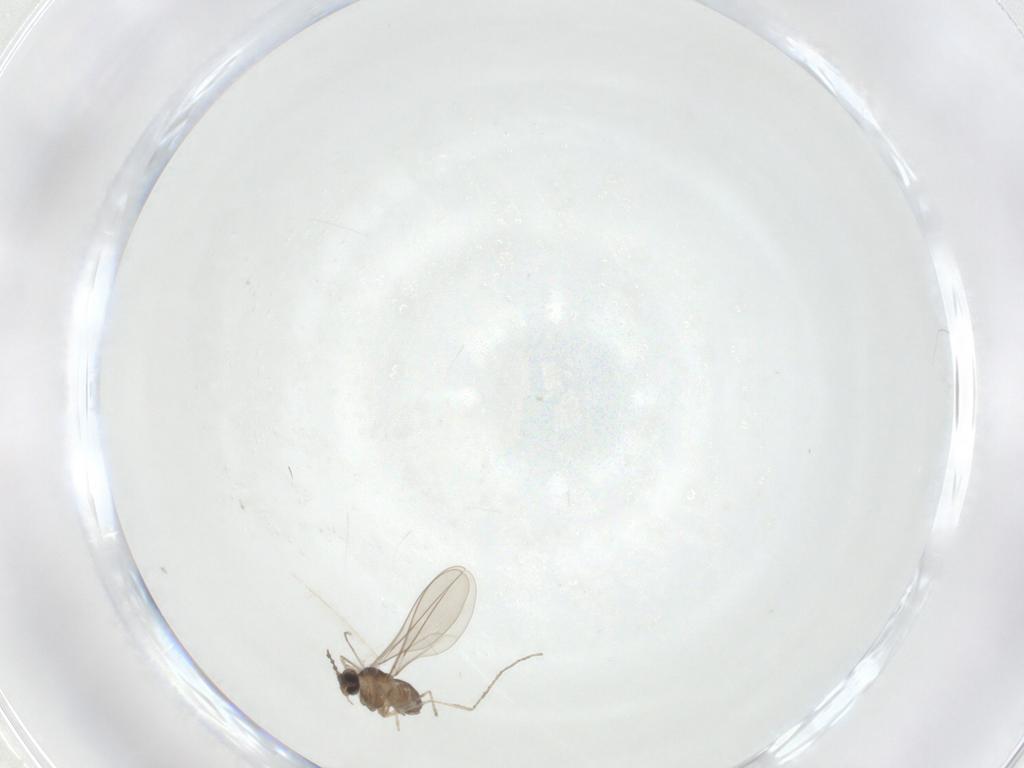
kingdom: Animalia
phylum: Arthropoda
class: Insecta
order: Diptera
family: Cecidomyiidae
